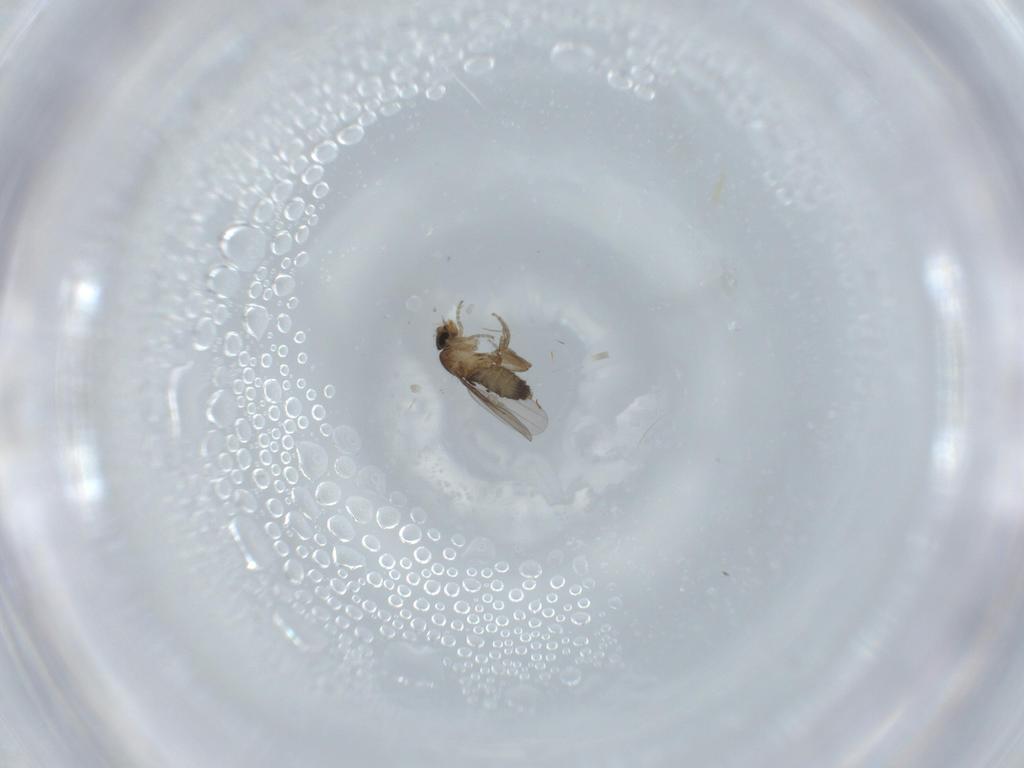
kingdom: Animalia
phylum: Arthropoda
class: Insecta
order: Diptera
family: Phoridae
